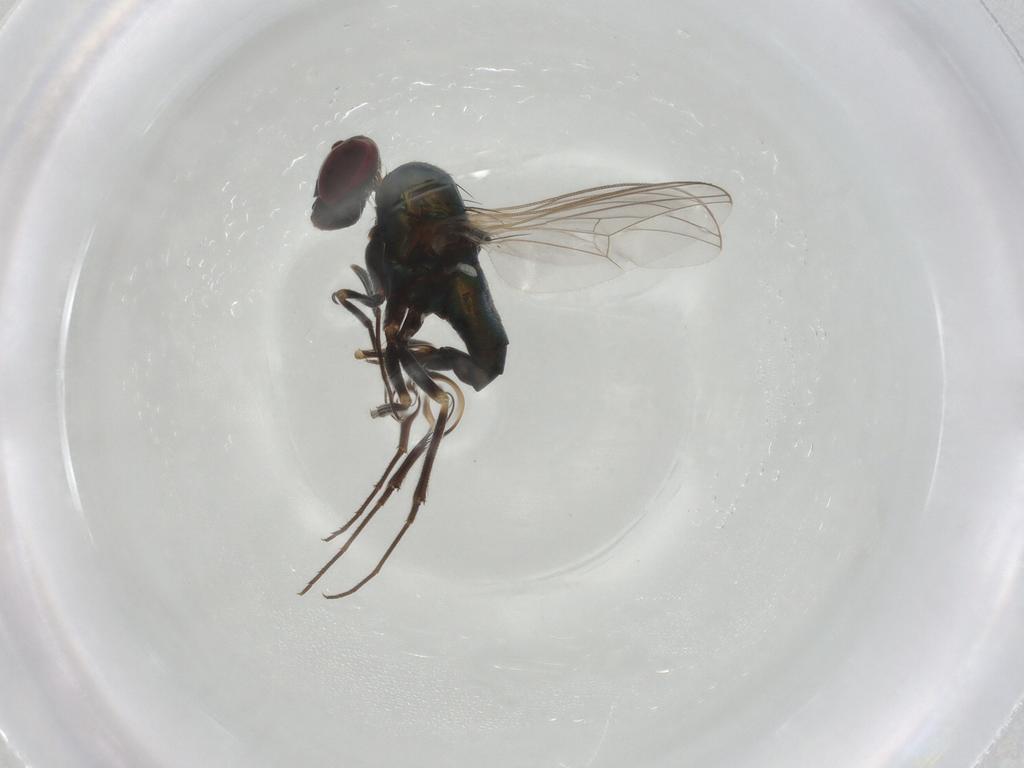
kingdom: Animalia
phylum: Arthropoda
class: Insecta
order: Diptera
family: Dolichopodidae
